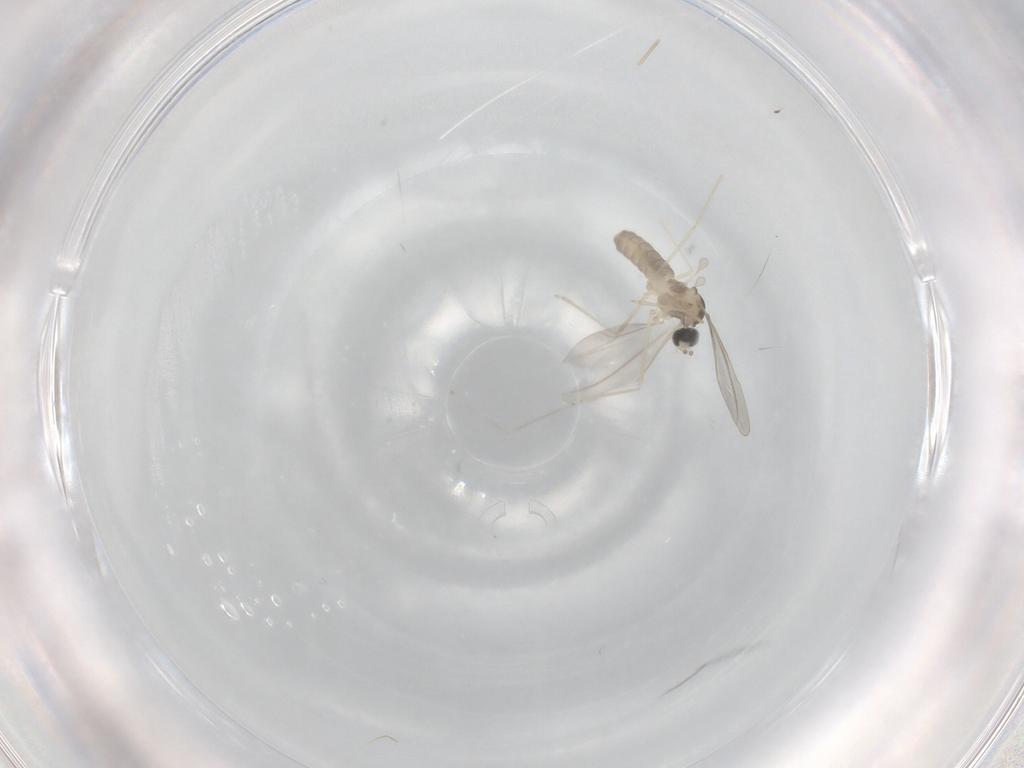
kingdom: Animalia
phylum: Arthropoda
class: Insecta
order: Diptera
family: Cecidomyiidae
